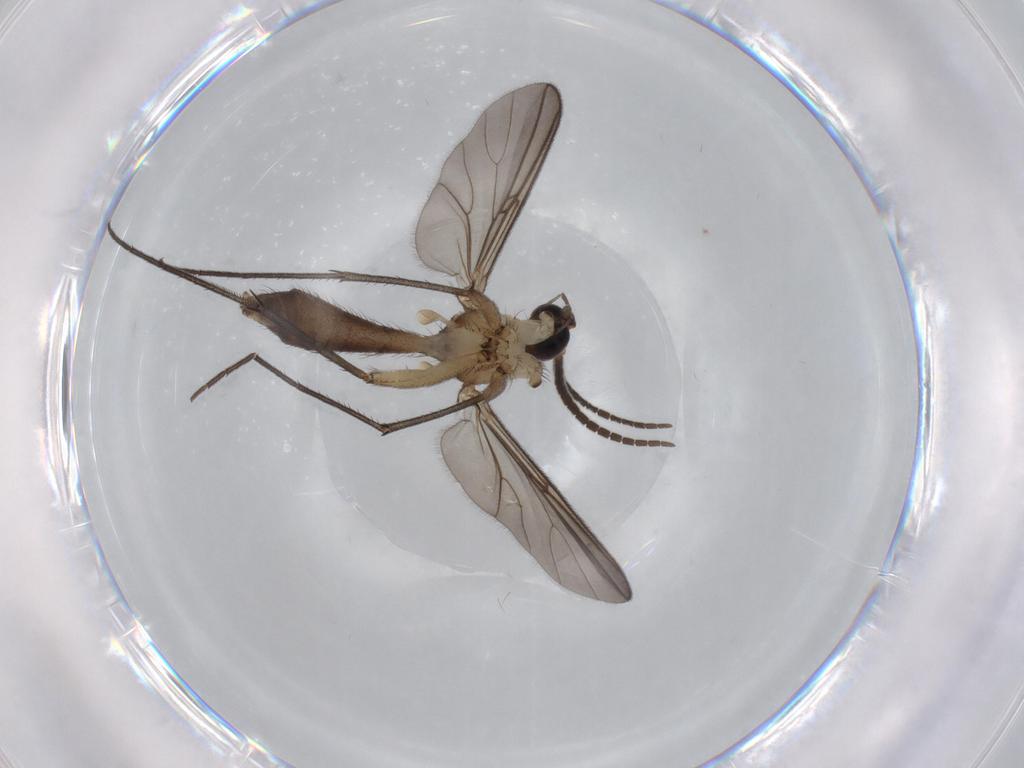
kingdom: Animalia
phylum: Arthropoda
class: Insecta
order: Diptera
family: Mycetophilidae
